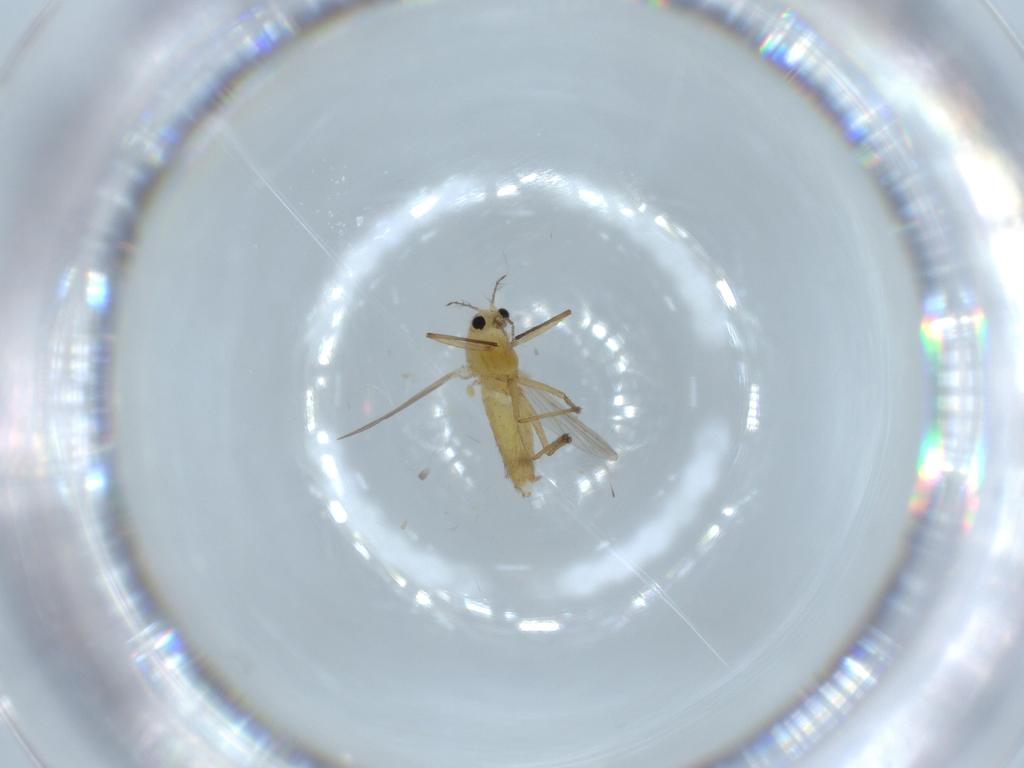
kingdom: Animalia
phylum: Arthropoda
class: Insecta
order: Diptera
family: Chironomidae
